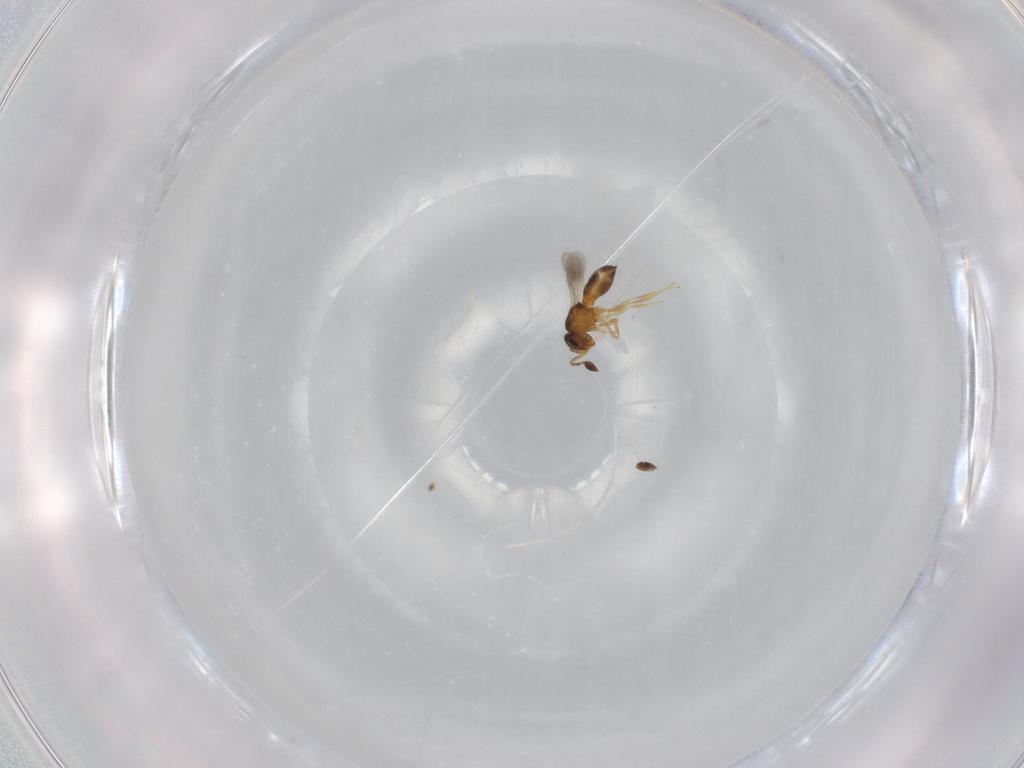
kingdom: Animalia
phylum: Arthropoda
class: Insecta
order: Hymenoptera
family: Scelionidae
